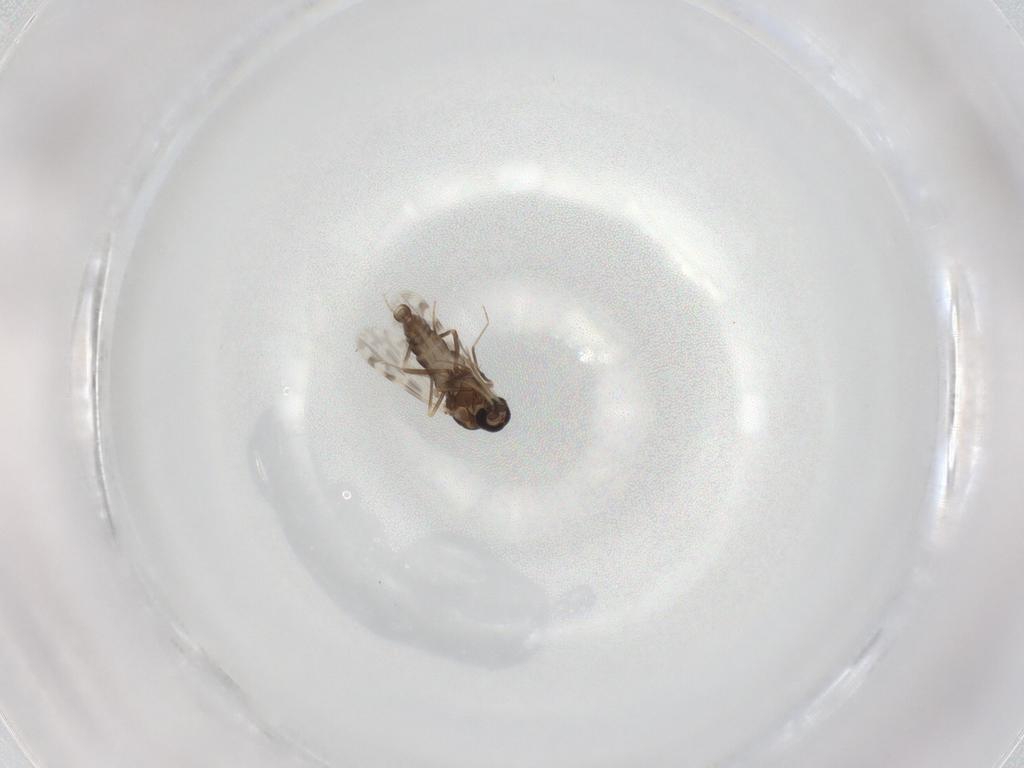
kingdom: Animalia
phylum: Arthropoda
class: Insecta
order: Diptera
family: Ceratopogonidae
